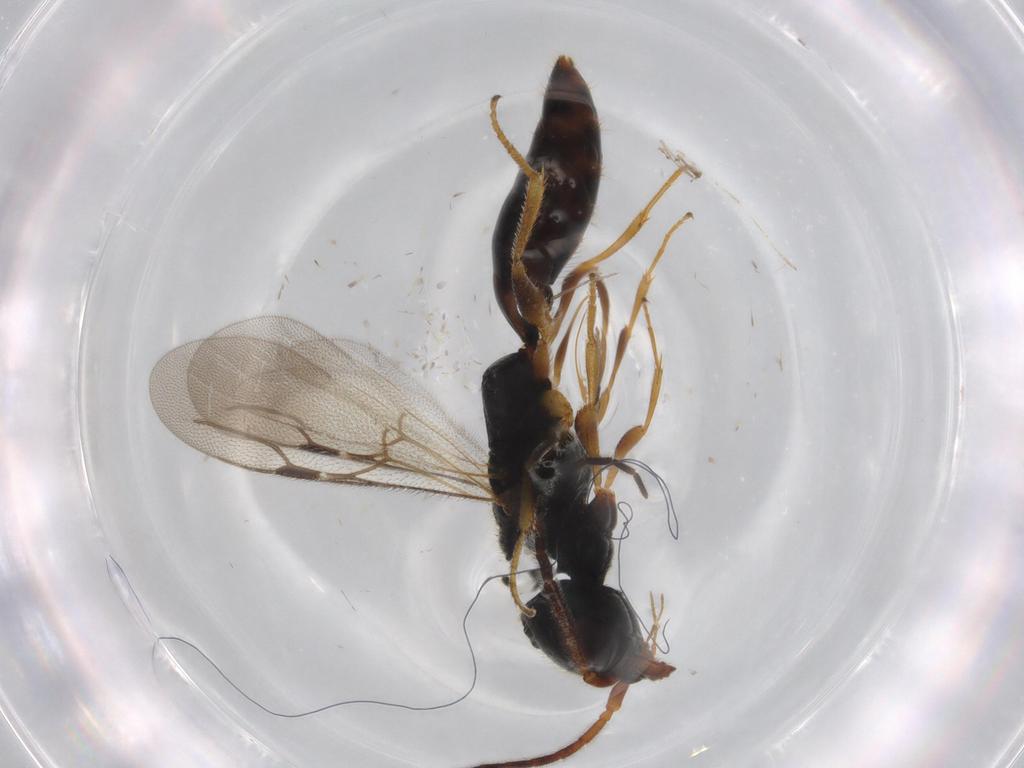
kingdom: Animalia
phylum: Arthropoda
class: Insecta
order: Hymenoptera
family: Bethylidae
